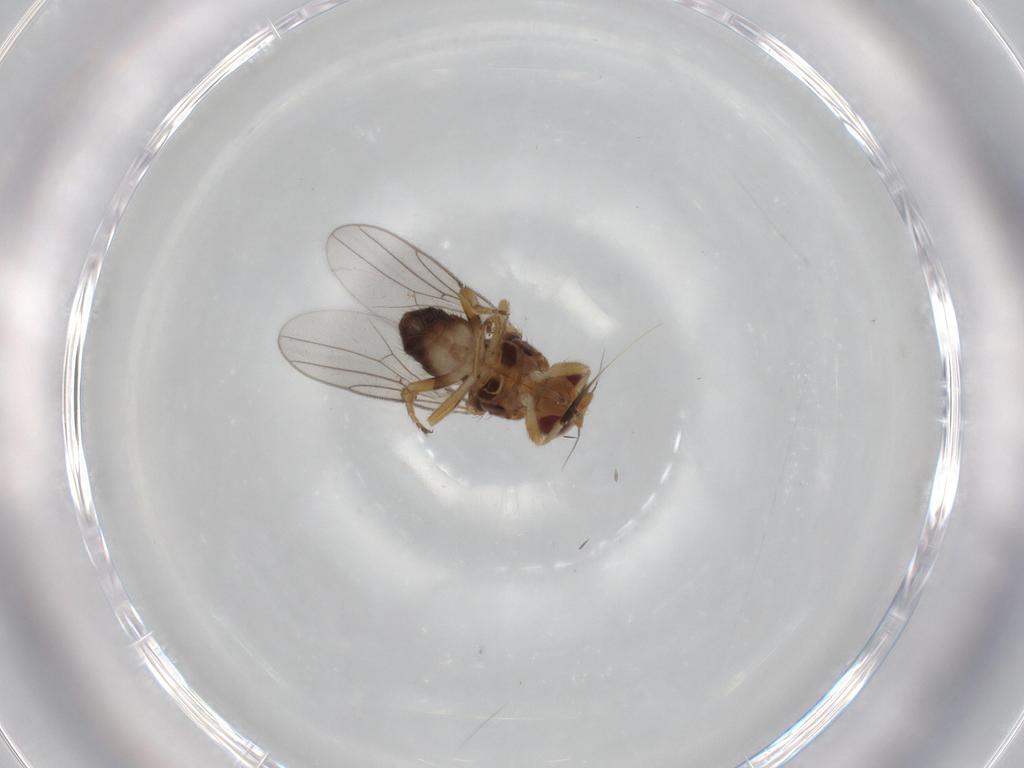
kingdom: Animalia
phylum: Arthropoda
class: Insecta
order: Diptera
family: Chloropidae
